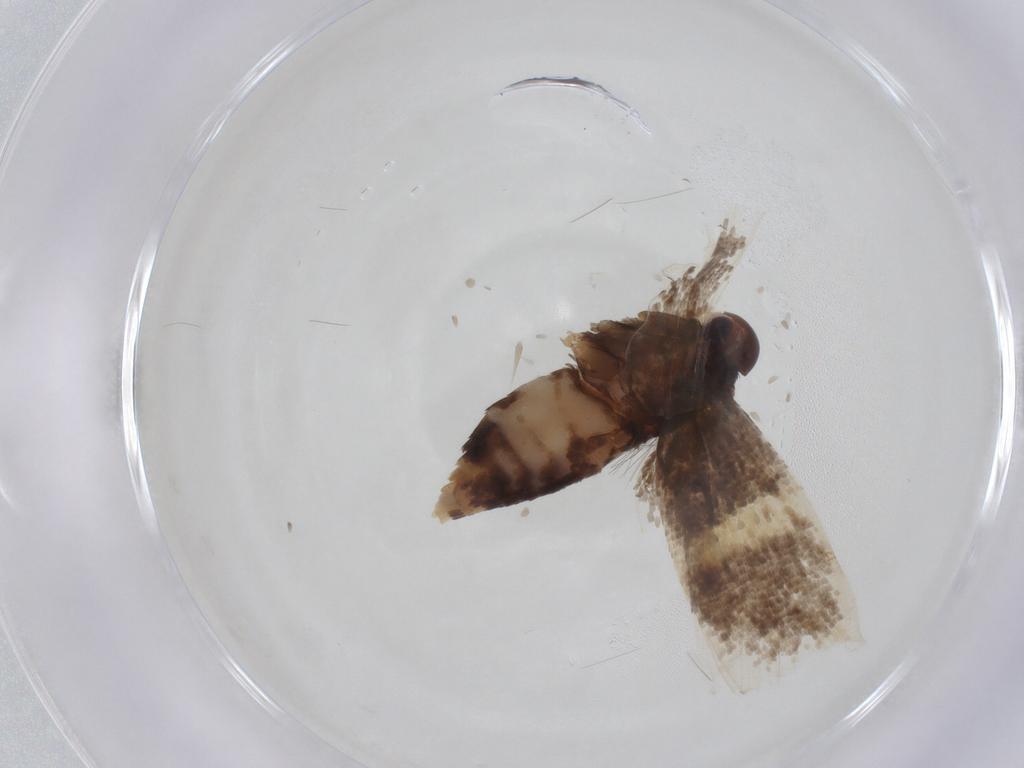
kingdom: Animalia
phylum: Arthropoda
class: Insecta
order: Lepidoptera
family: Oecophoridae
